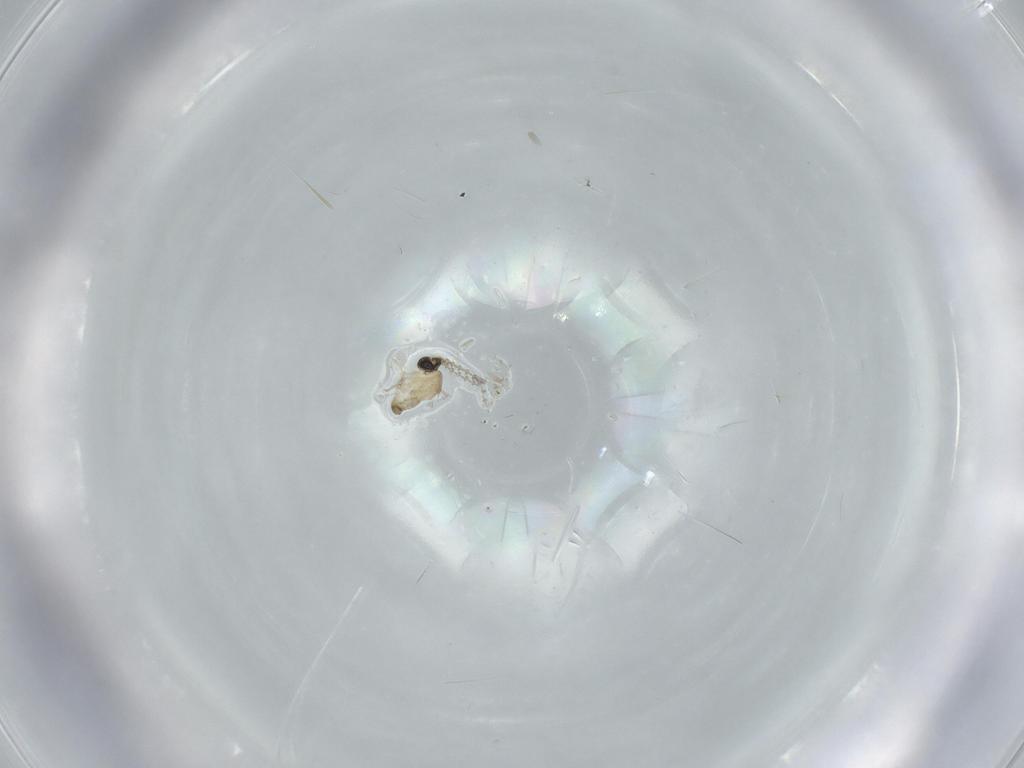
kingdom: Animalia
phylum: Arthropoda
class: Insecta
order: Diptera
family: Cecidomyiidae
